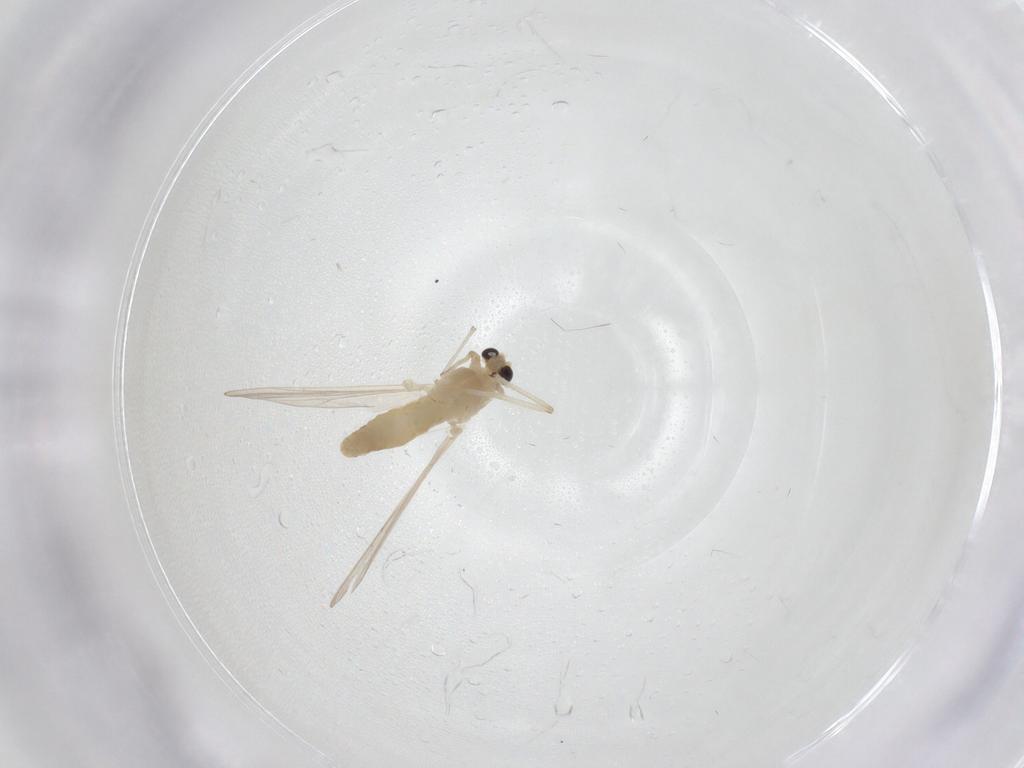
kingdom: Animalia
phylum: Arthropoda
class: Insecta
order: Diptera
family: Chironomidae
